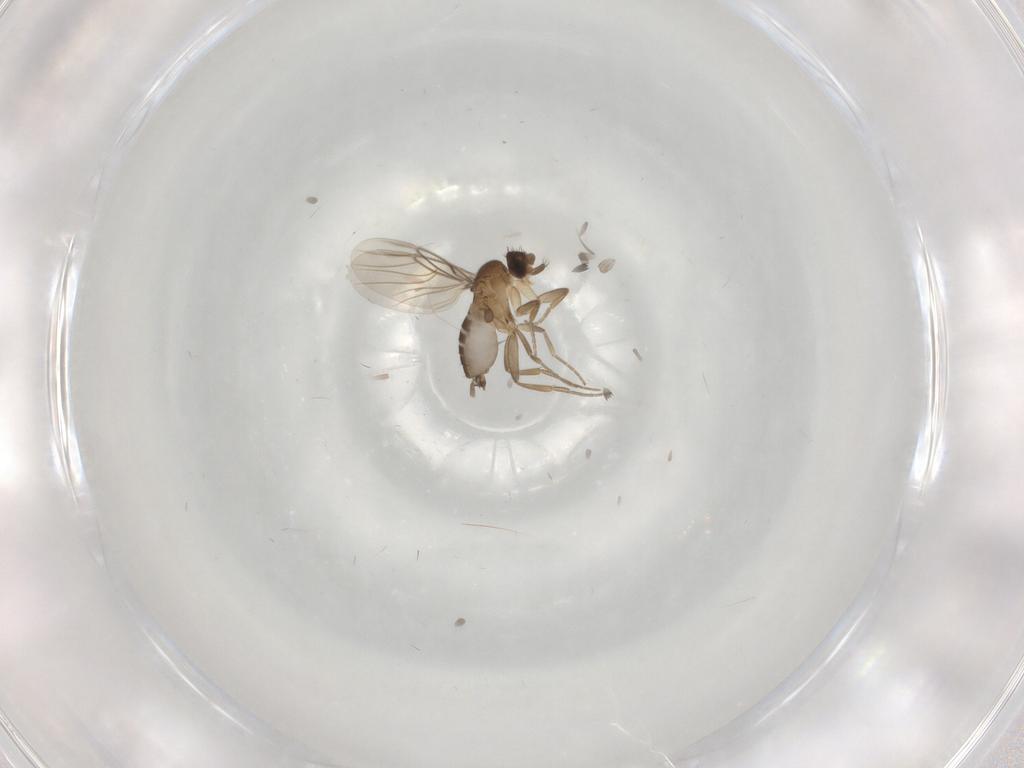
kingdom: Animalia
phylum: Arthropoda
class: Insecta
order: Diptera
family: Phoridae
